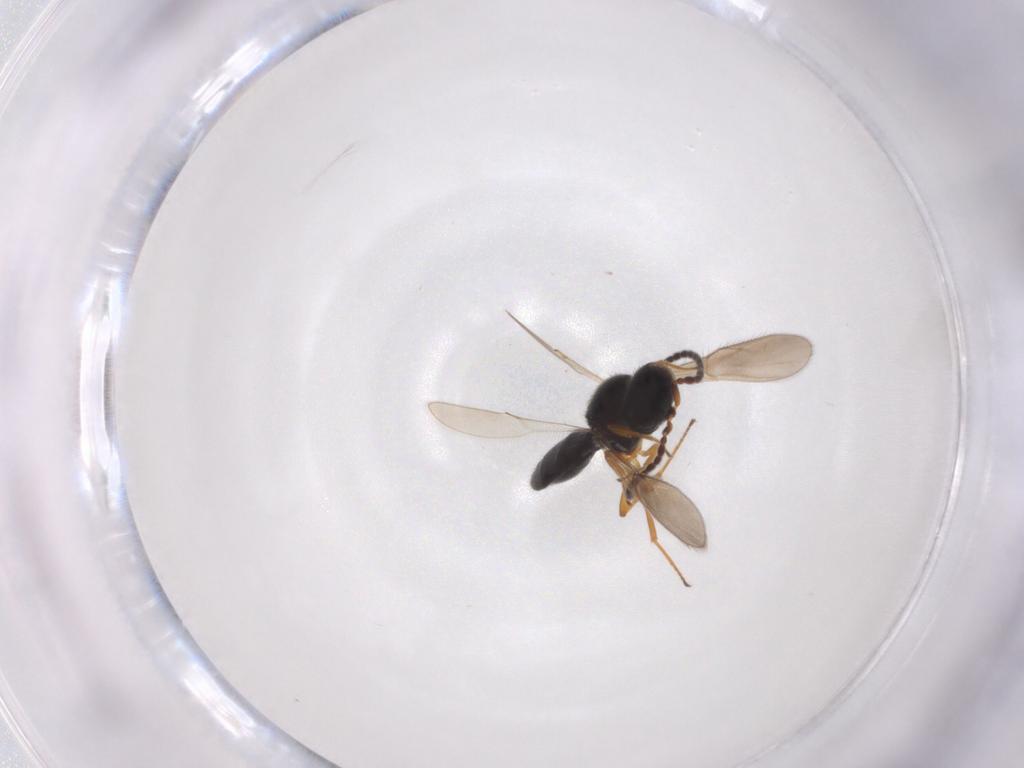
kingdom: Animalia
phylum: Arthropoda
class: Insecta
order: Hymenoptera
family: Scelionidae
